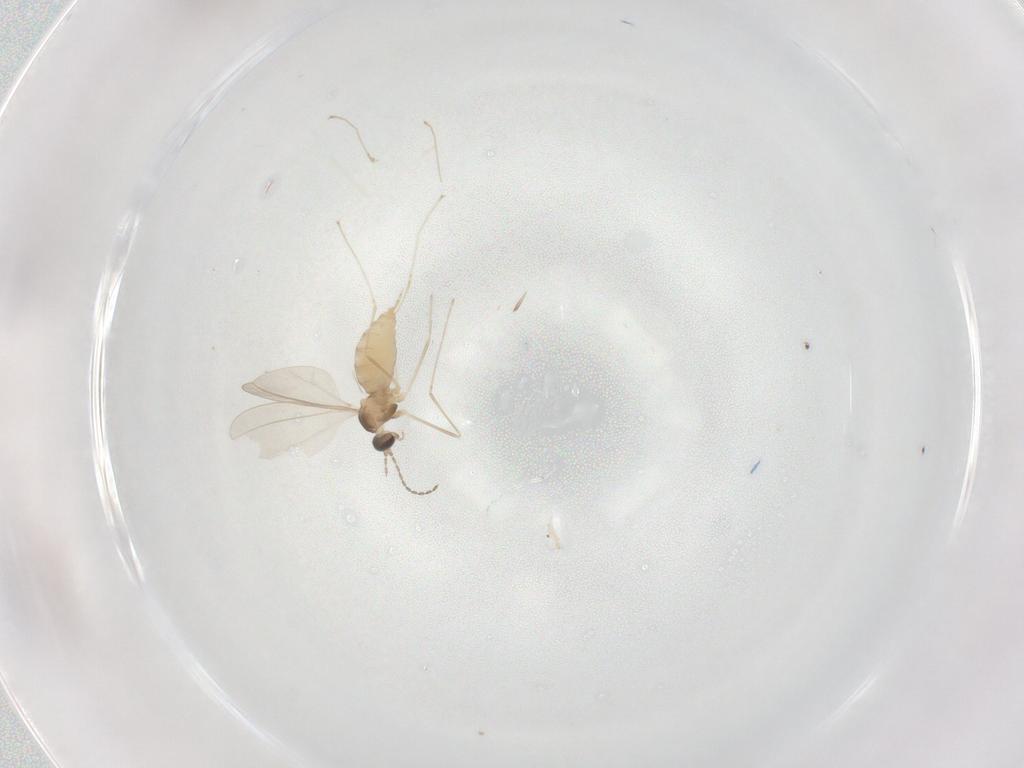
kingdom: Animalia
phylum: Arthropoda
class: Insecta
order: Diptera
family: Cecidomyiidae
